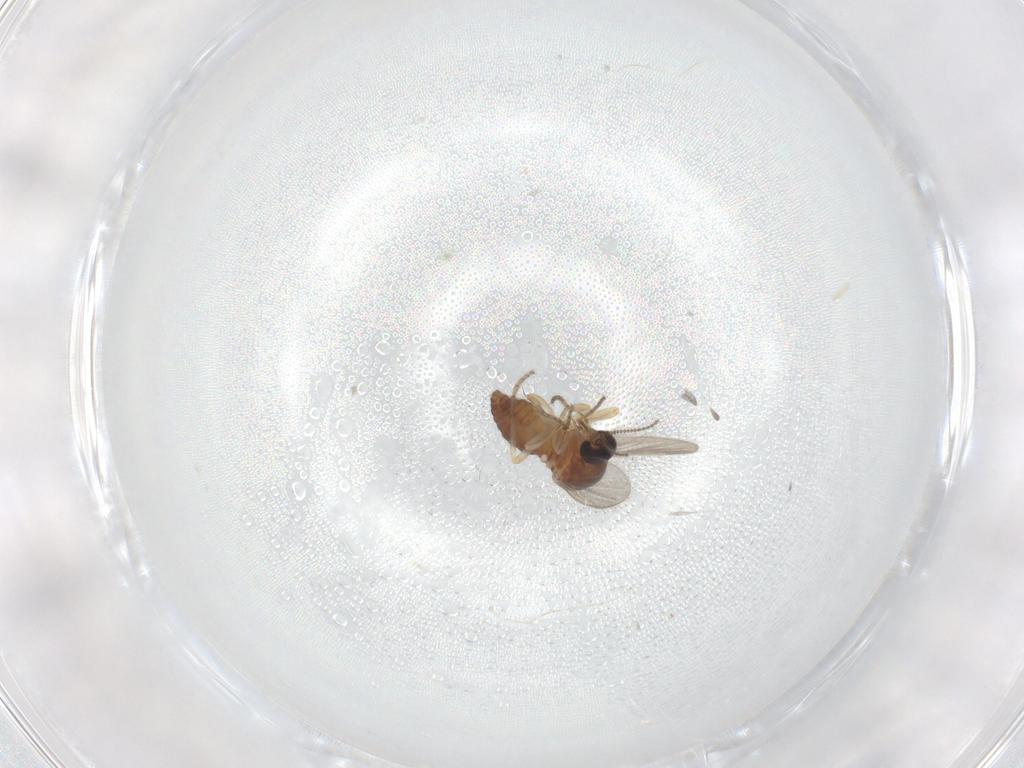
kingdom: Animalia
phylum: Arthropoda
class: Insecta
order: Diptera
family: Ceratopogonidae
